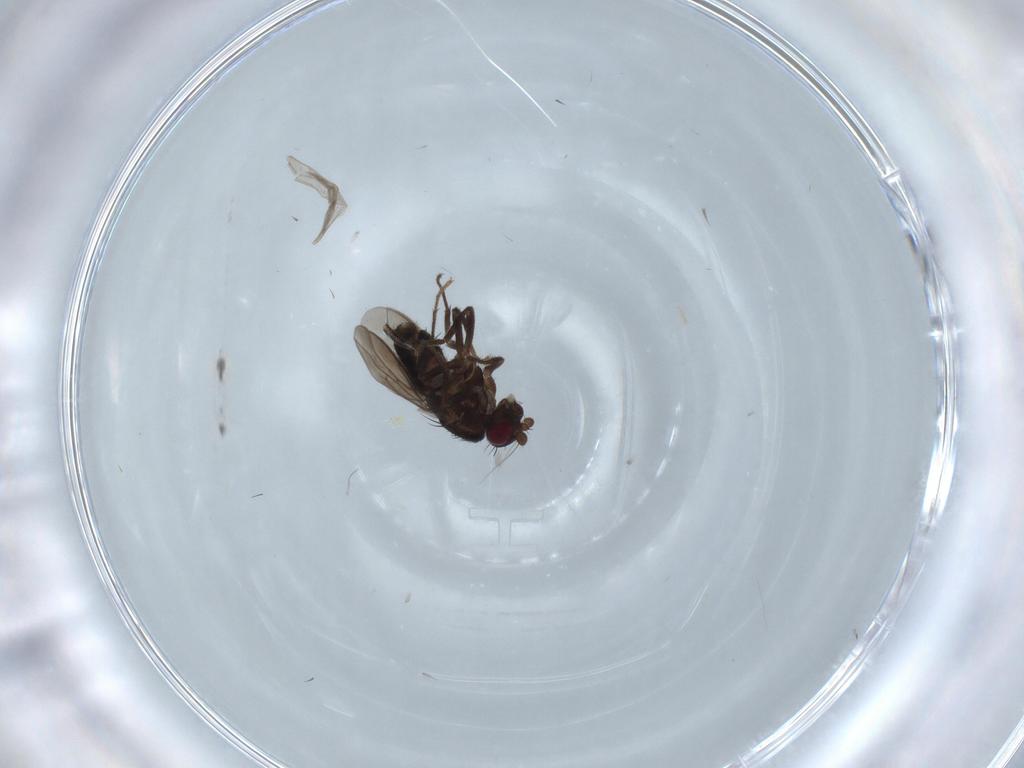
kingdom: Animalia
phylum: Arthropoda
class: Insecta
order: Diptera
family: Sphaeroceridae
